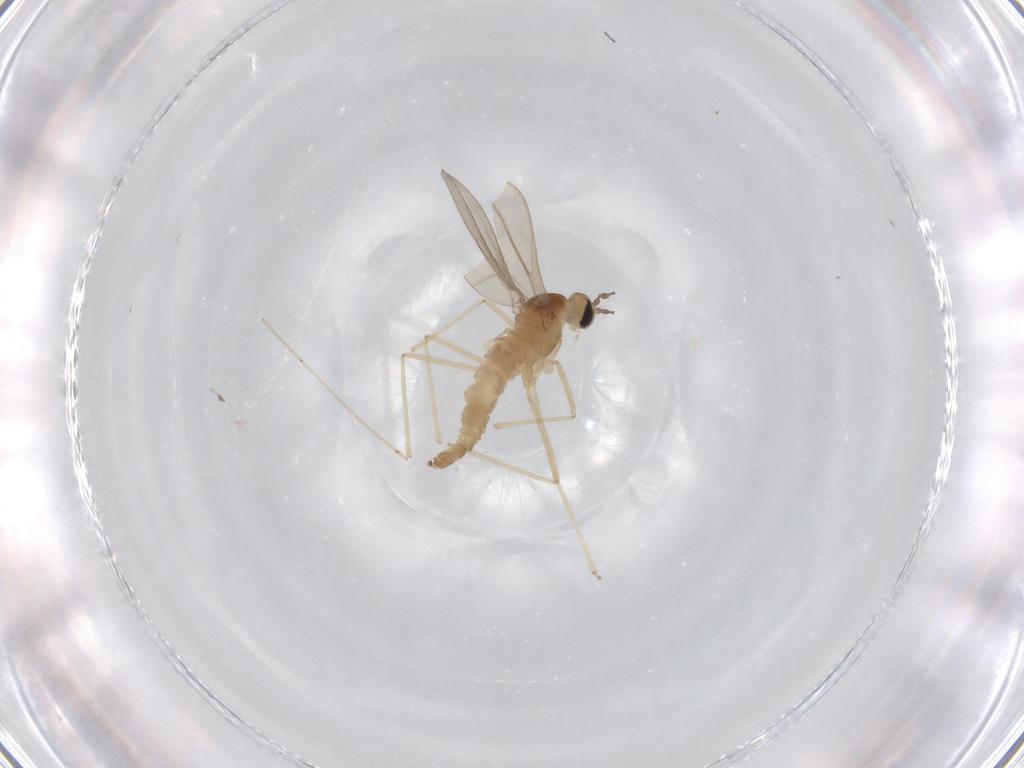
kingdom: Animalia
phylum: Arthropoda
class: Insecta
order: Diptera
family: Cecidomyiidae
